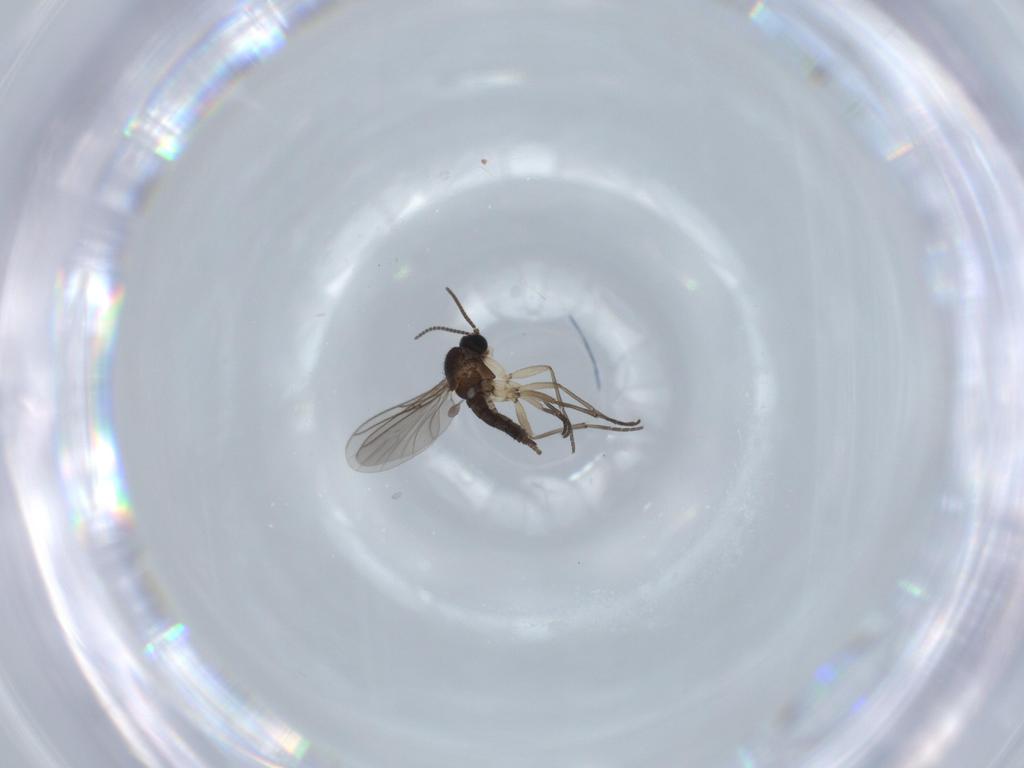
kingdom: Animalia
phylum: Arthropoda
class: Insecta
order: Diptera
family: Sciaridae
